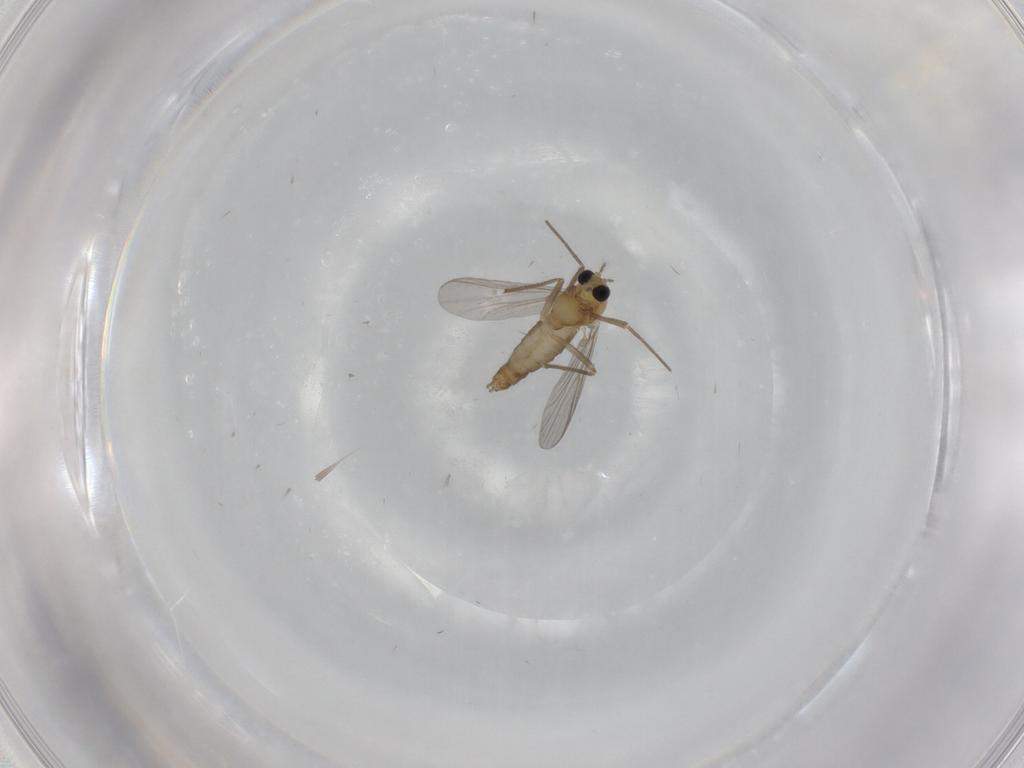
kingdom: Animalia
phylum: Arthropoda
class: Insecta
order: Diptera
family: Chironomidae
